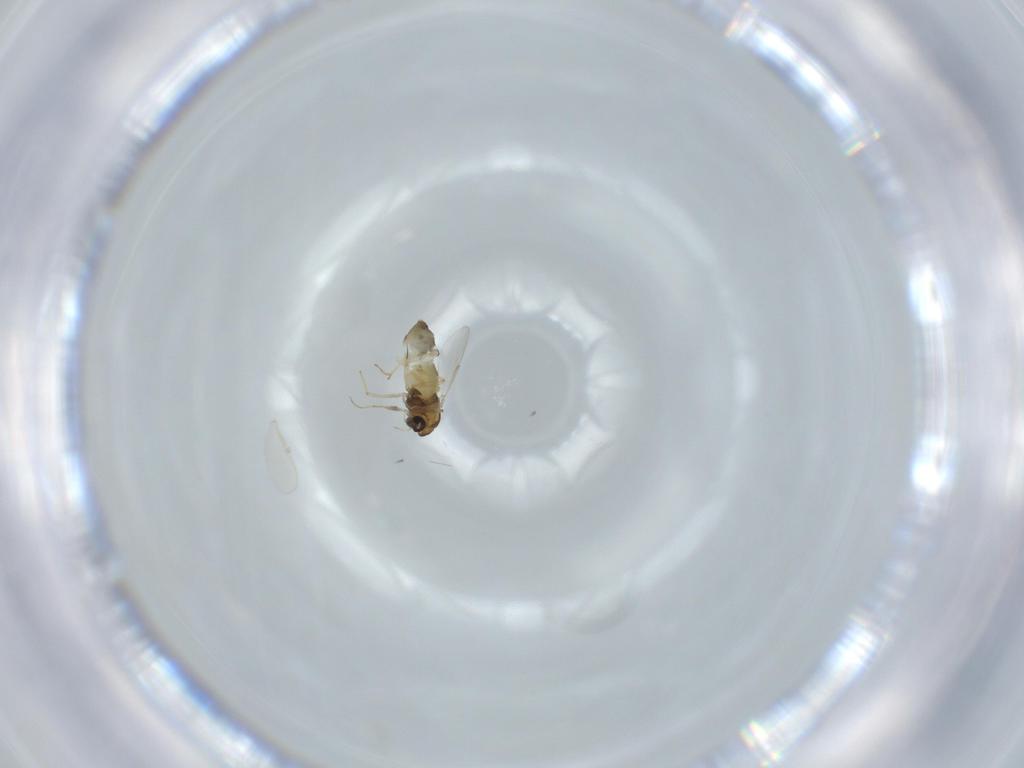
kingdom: Animalia
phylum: Arthropoda
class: Insecta
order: Diptera
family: Chironomidae
